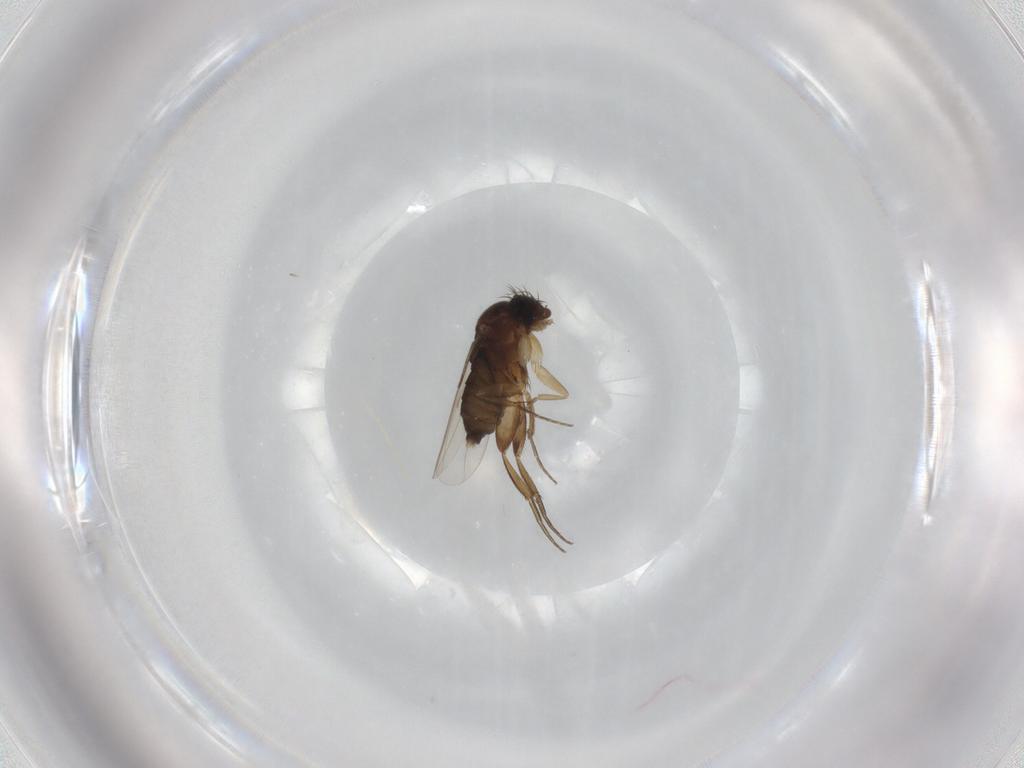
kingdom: Animalia
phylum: Arthropoda
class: Insecta
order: Diptera
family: Phoridae
